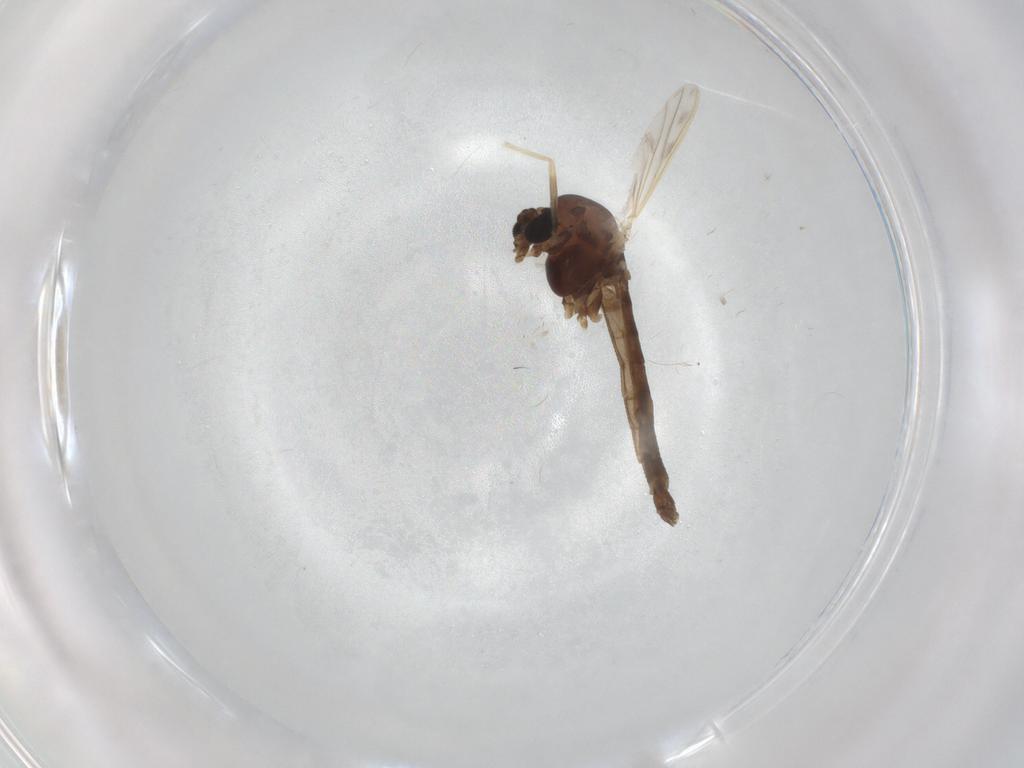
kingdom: Animalia
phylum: Arthropoda
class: Insecta
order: Diptera
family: Chironomidae
